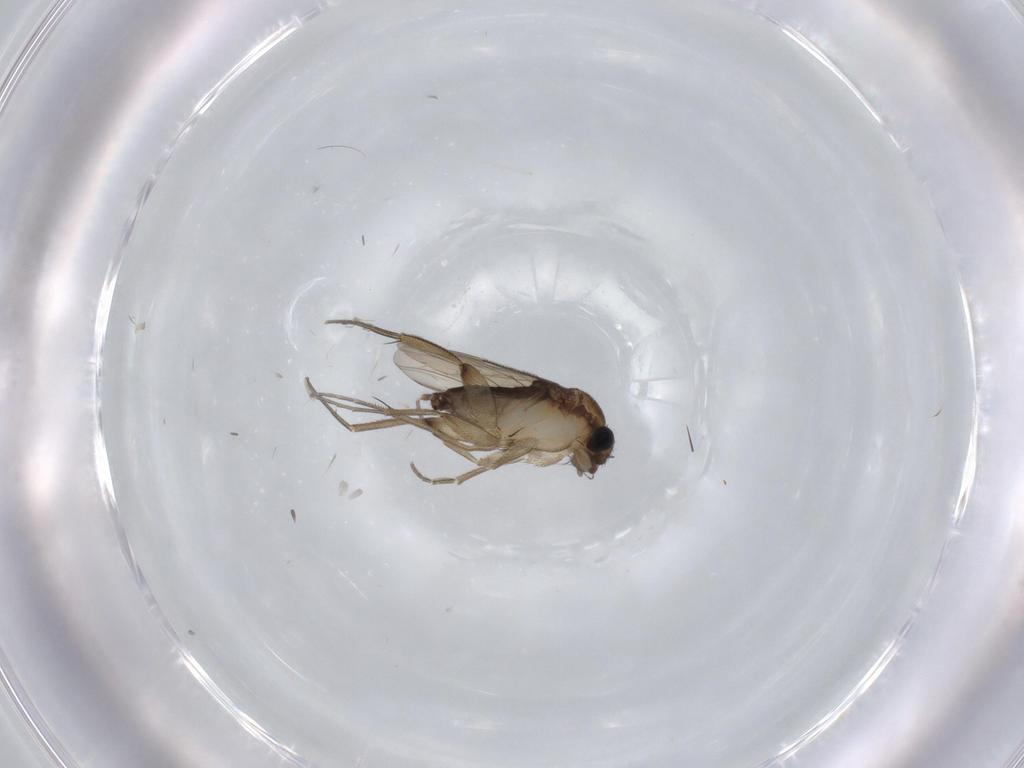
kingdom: Animalia
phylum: Arthropoda
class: Insecta
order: Diptera
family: Phoridae
